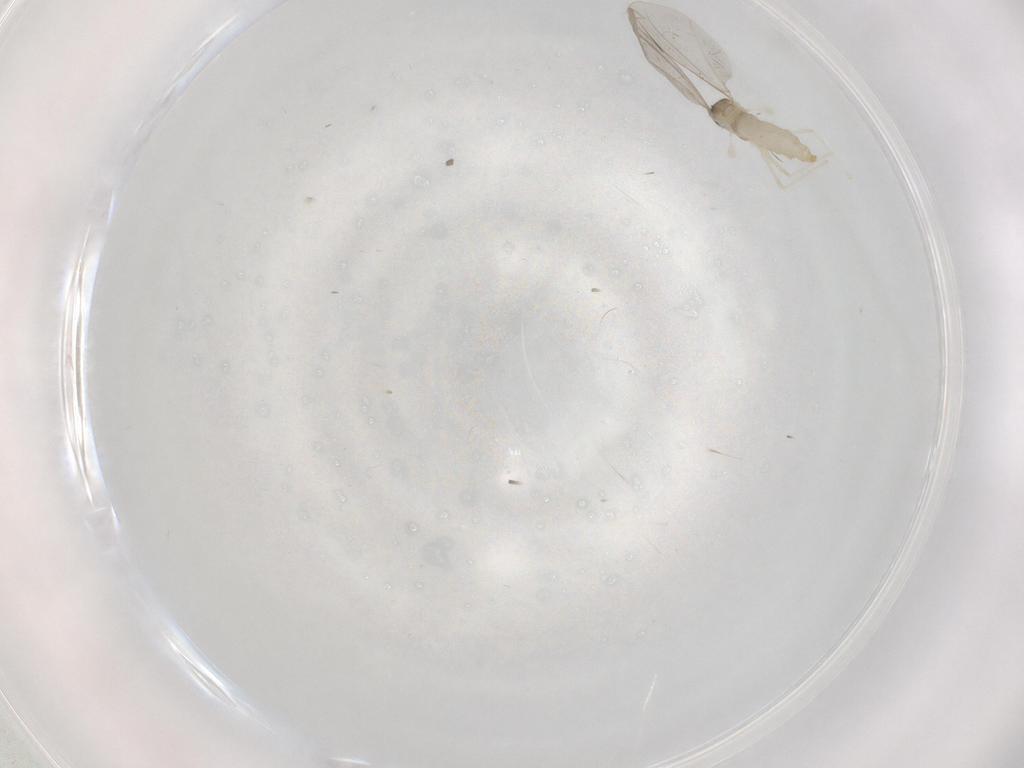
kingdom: Animalia
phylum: Arthropoda
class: Insecta
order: Diptera
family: Cecidomyiidae
